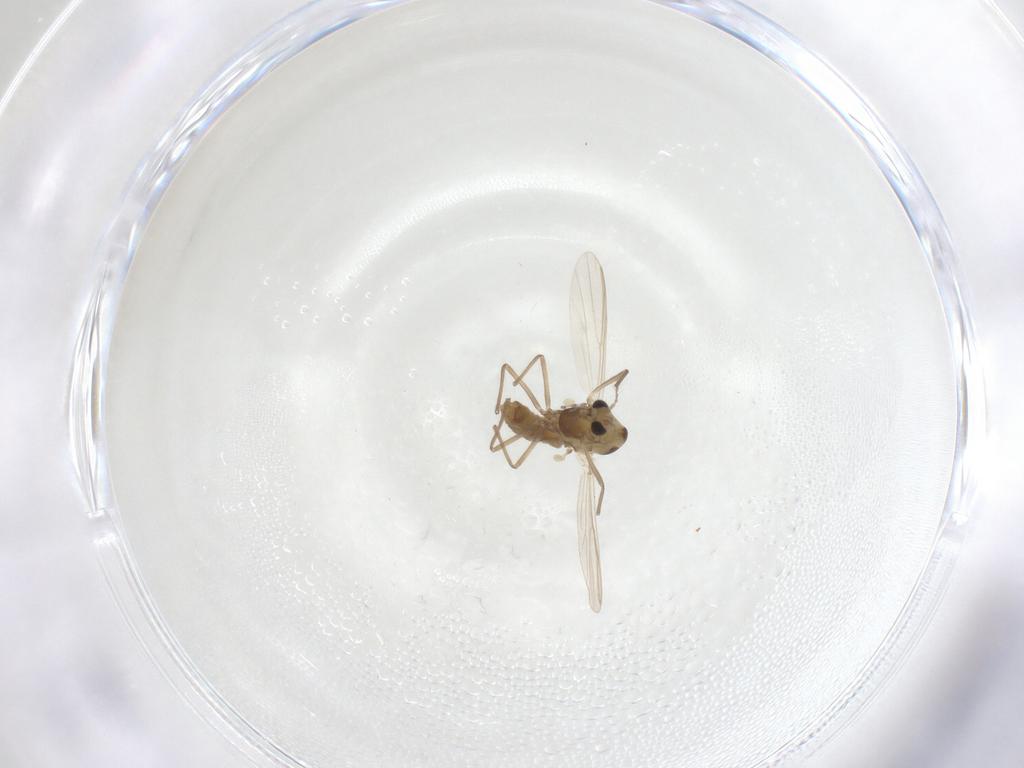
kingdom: Animalia
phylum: Arthropoda
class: Insecta
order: Diptera
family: Chironomidae
